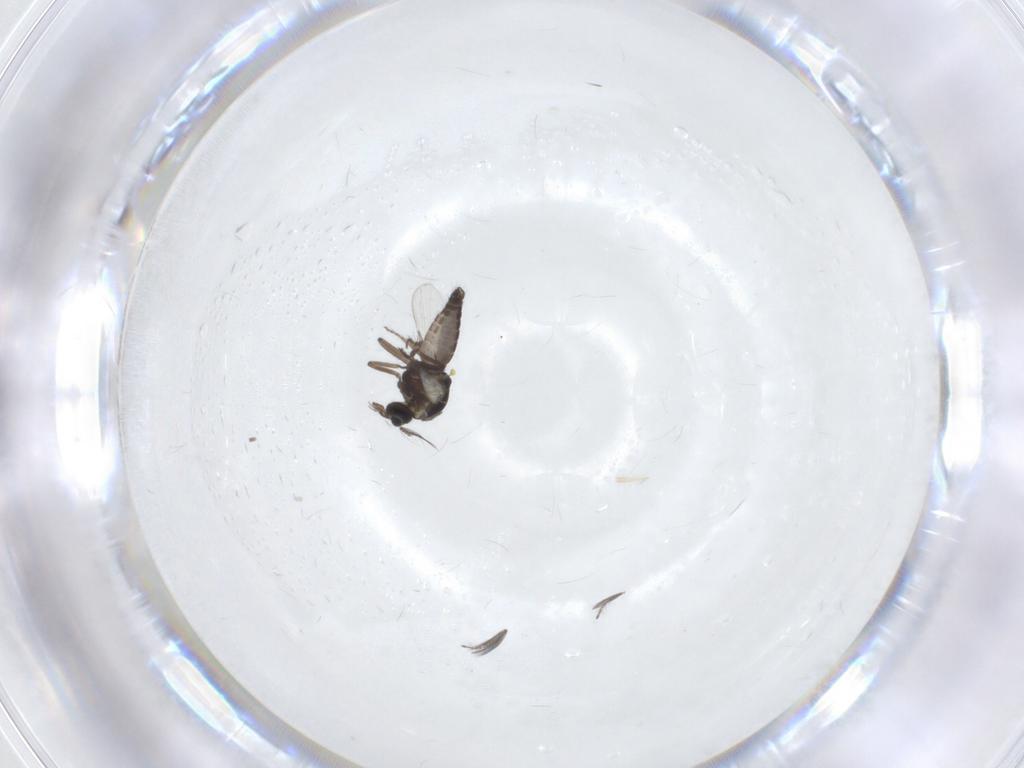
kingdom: Animalia
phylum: Arthropoda
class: Insecta
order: Diptera
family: Ceratopogonidae
